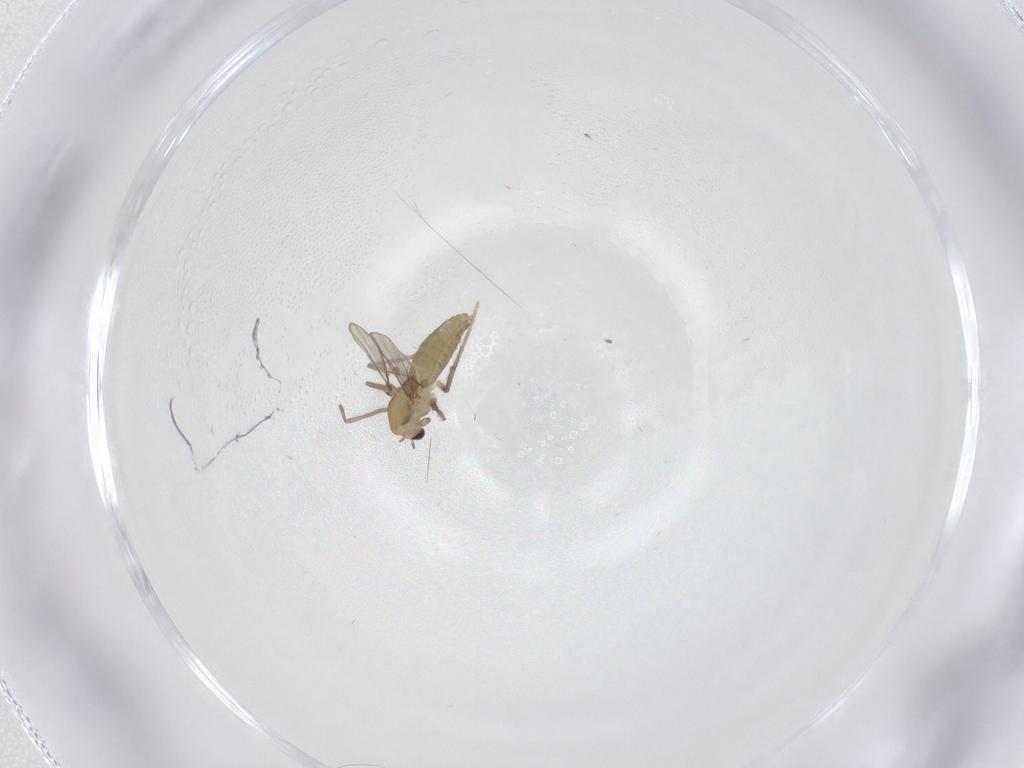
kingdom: Animalia
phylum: Arthropoda
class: Insecta
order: Diptera
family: Chironomidae
